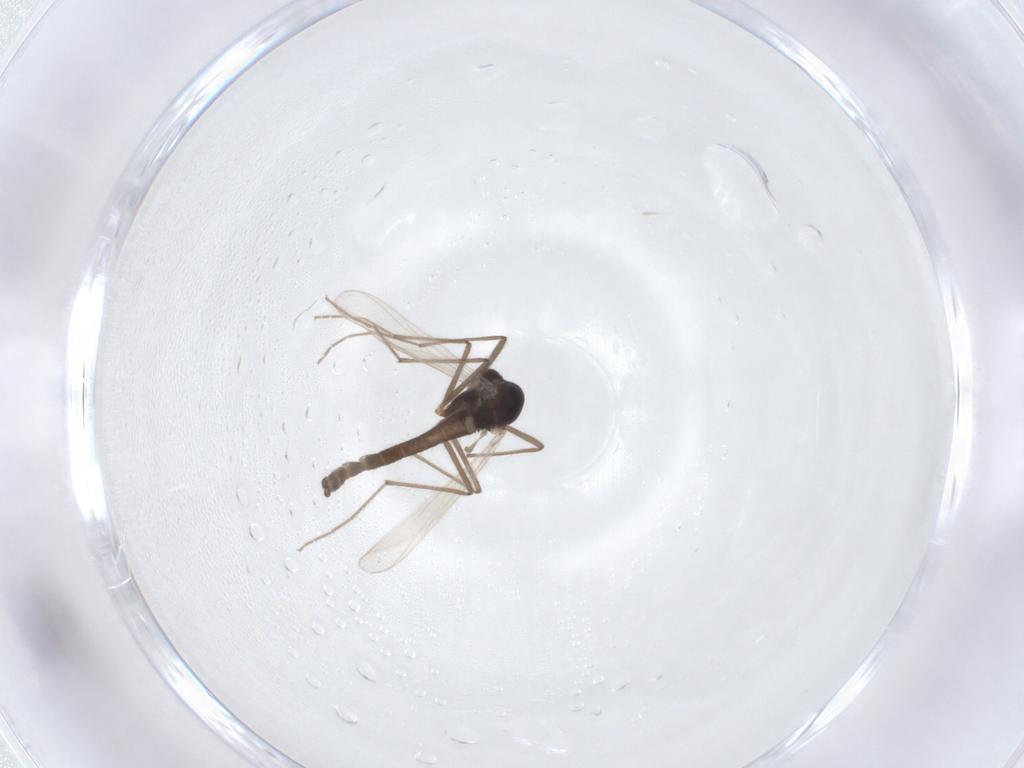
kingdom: Animalia
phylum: Arthropoda
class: Insecta
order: Diptera
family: Chironomidae
